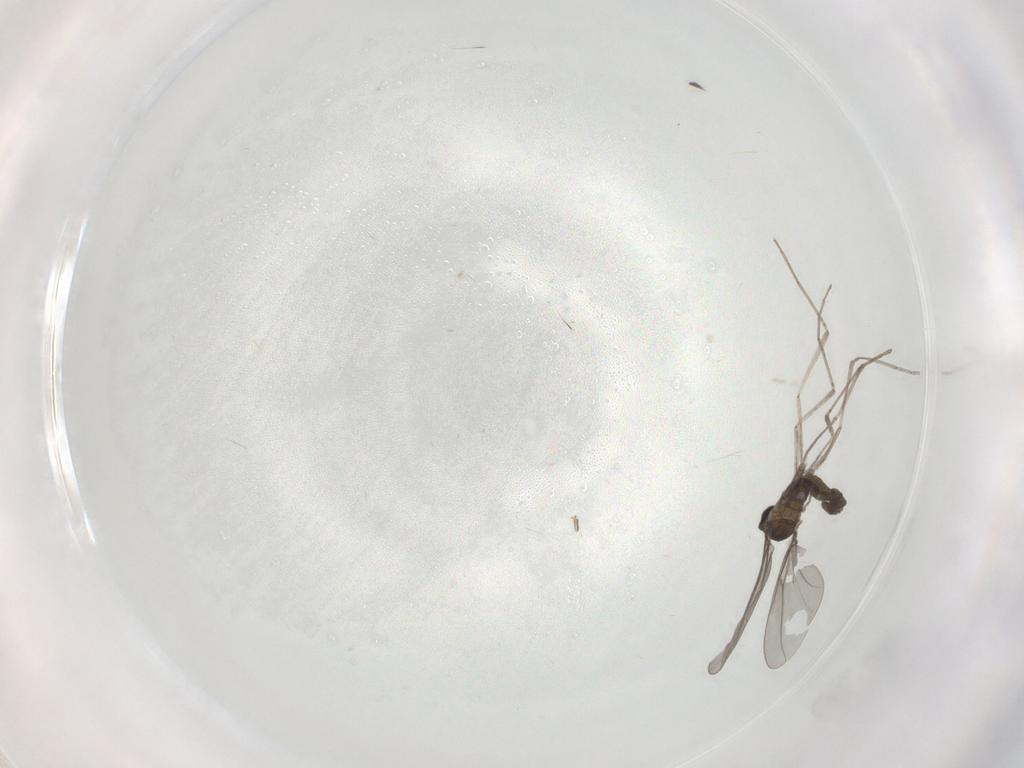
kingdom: Animalia
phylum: Arthropoda
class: Insecta
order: Diptera
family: Cecidomyiidae
